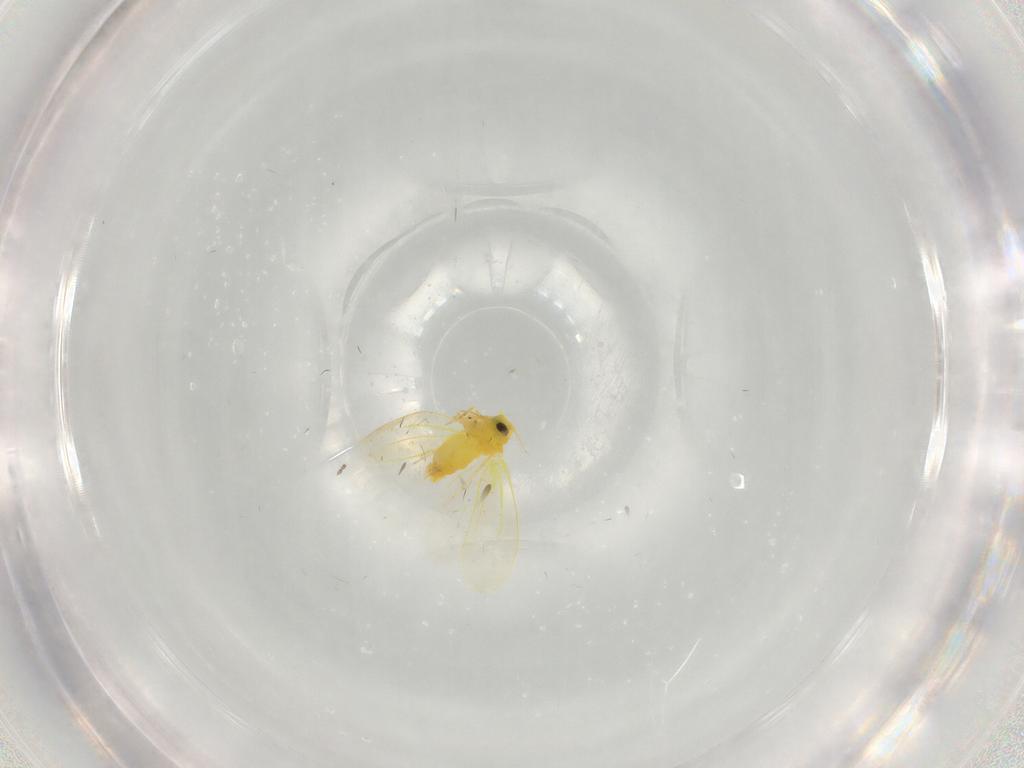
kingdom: Animalia
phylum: Arthropoda
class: Insecta
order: Hemiptera
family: Aleyrodidae
